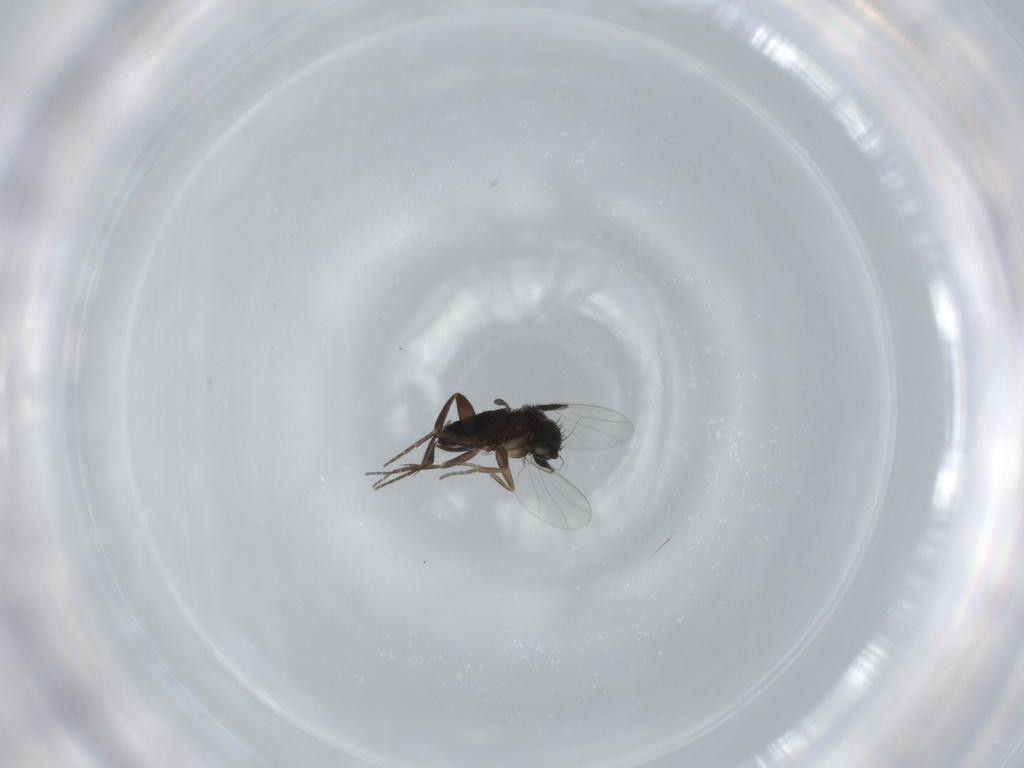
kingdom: Animalia
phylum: Arthropoda
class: Insecta
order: Diptera
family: Phoridae
